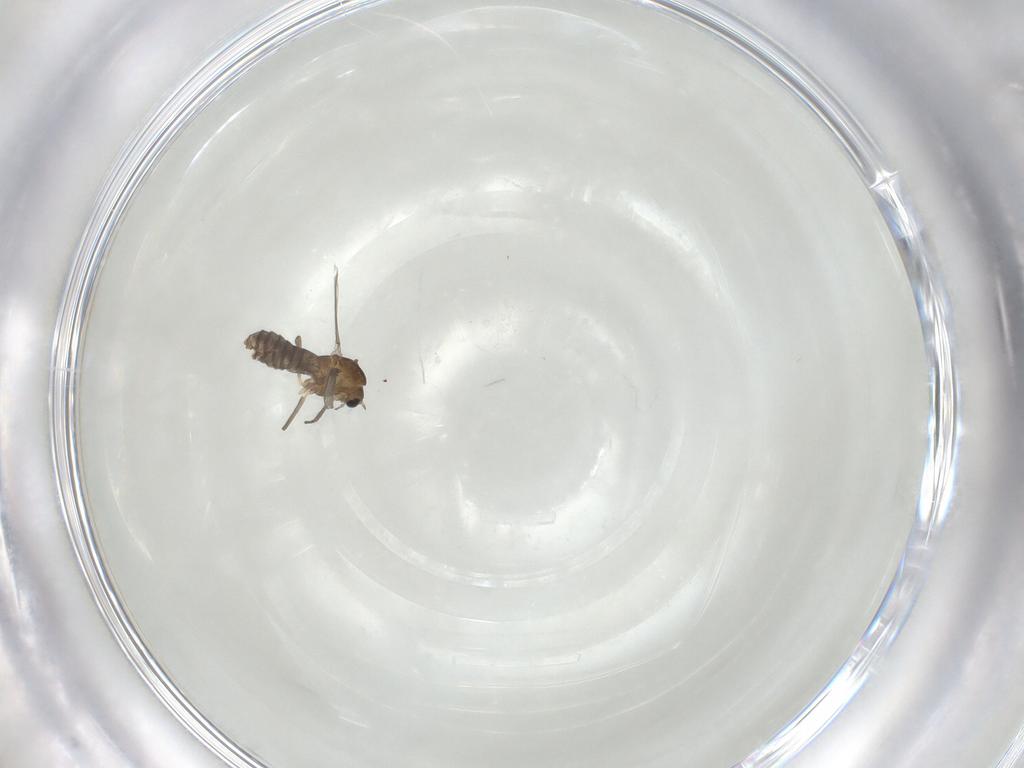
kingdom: Animalia
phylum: Arthropoda
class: Insecta
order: Diptera
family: Chironomidae
